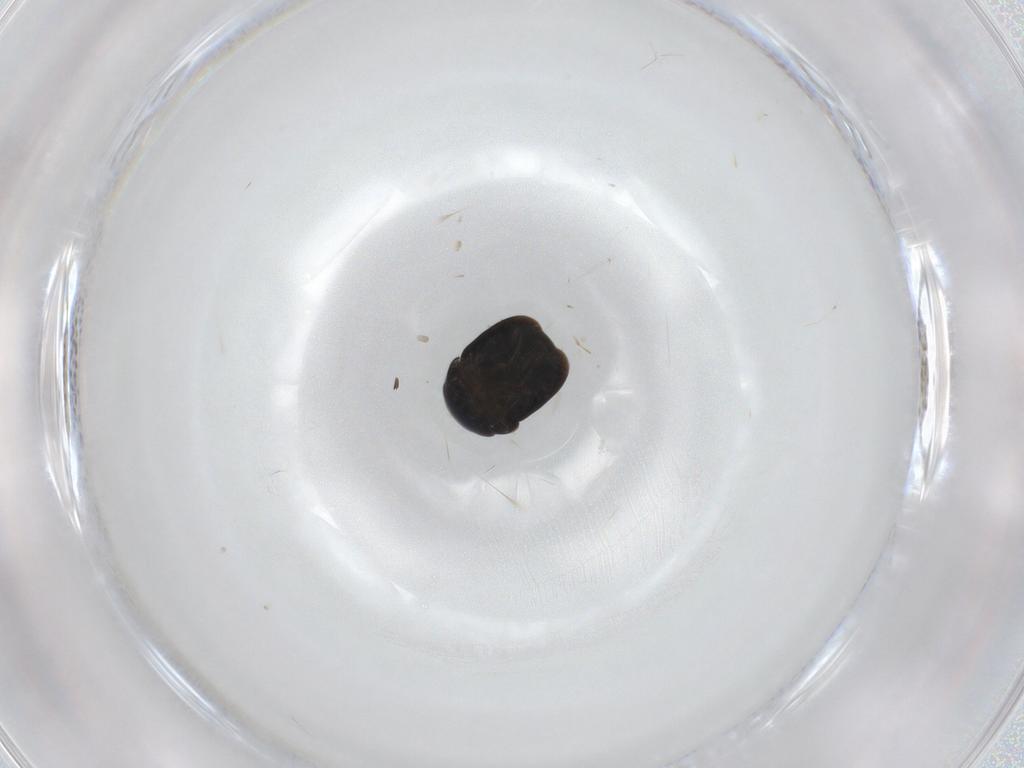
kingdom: Animalia
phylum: Arthropoda
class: Insecta
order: Coleoptera
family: Cybocephalidae
